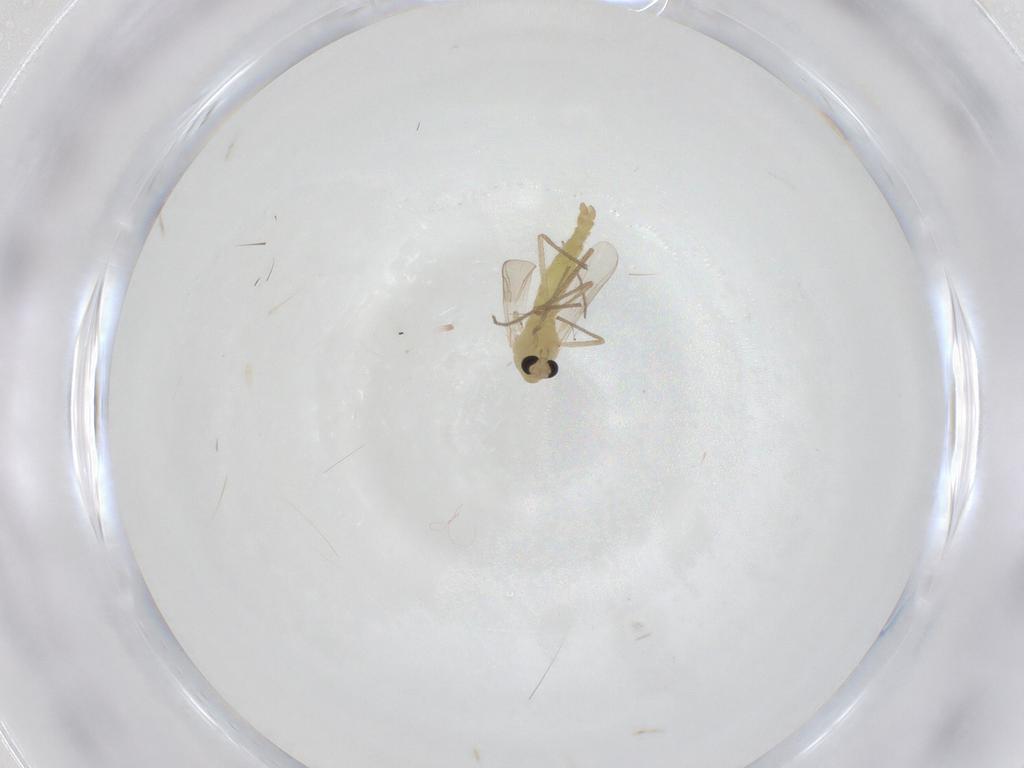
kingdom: Animalia
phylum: Arthropoda
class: Insecta
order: Diptera
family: Chironomidae
